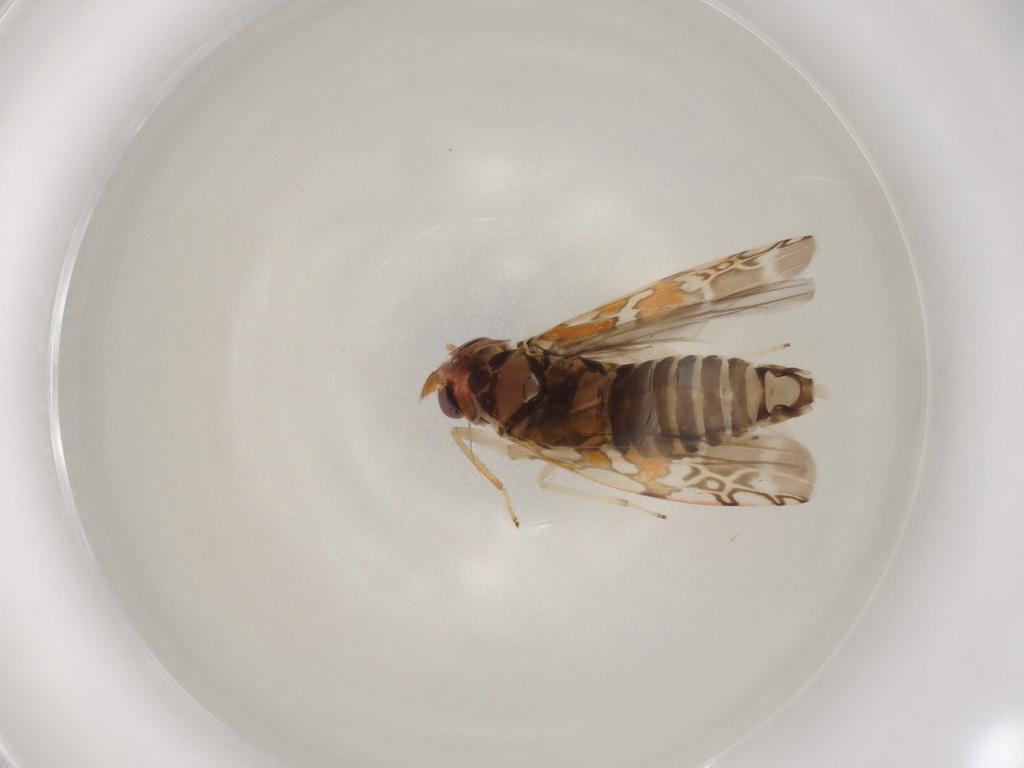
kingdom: Animalia
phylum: Arthropoda
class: Insecta
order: Hemiptera
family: Cicadellidae
